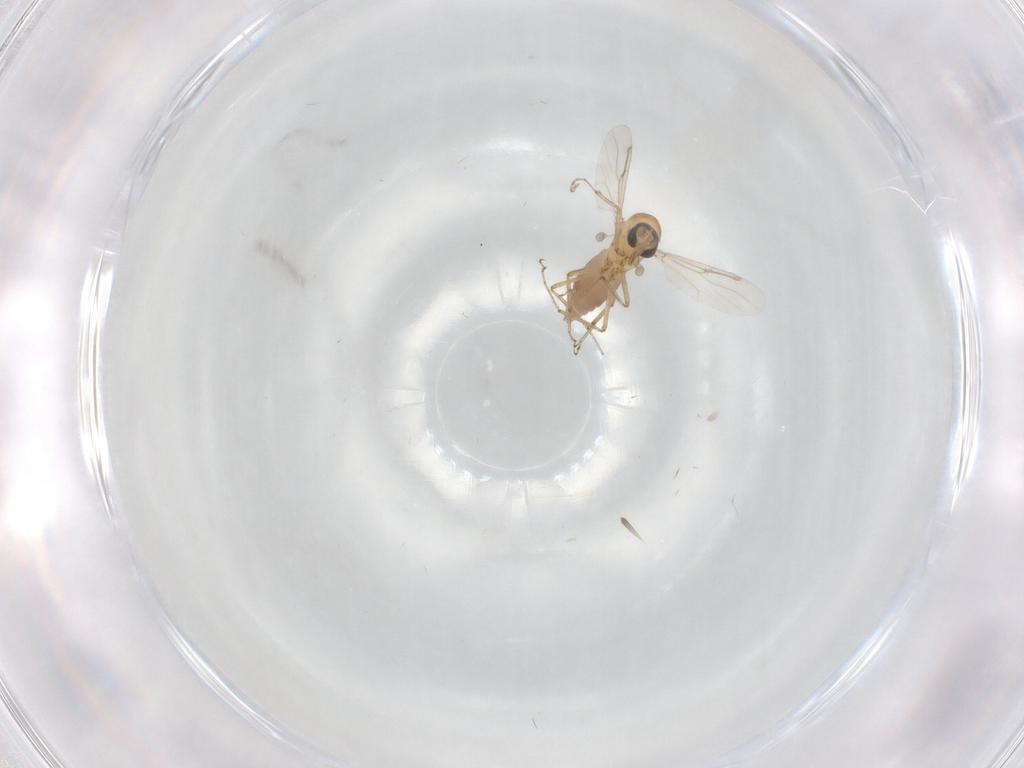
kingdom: Animalia
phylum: Arthropoda
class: Insecta
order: Diptera
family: Ceratopogonidae
